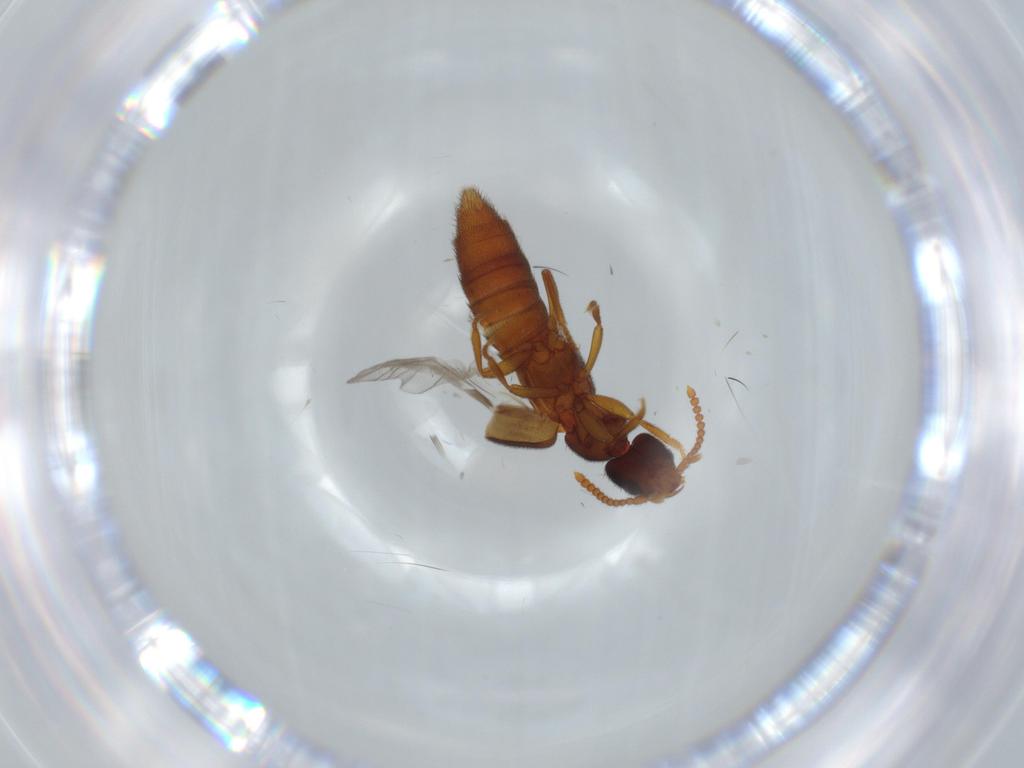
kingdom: Animalia
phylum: Arthropoda
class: Insecta
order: Coleoptera
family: Staphylinidae
